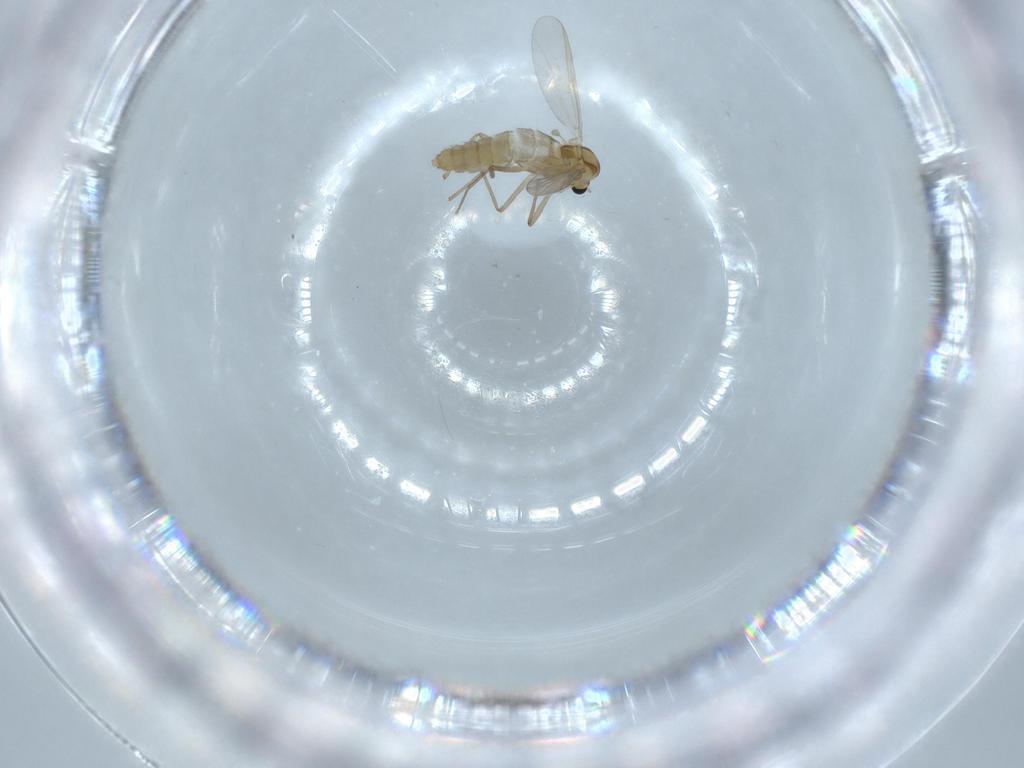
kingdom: Animalia
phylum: Arthropoda
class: Insecta
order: Diptera
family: Chironomidae
